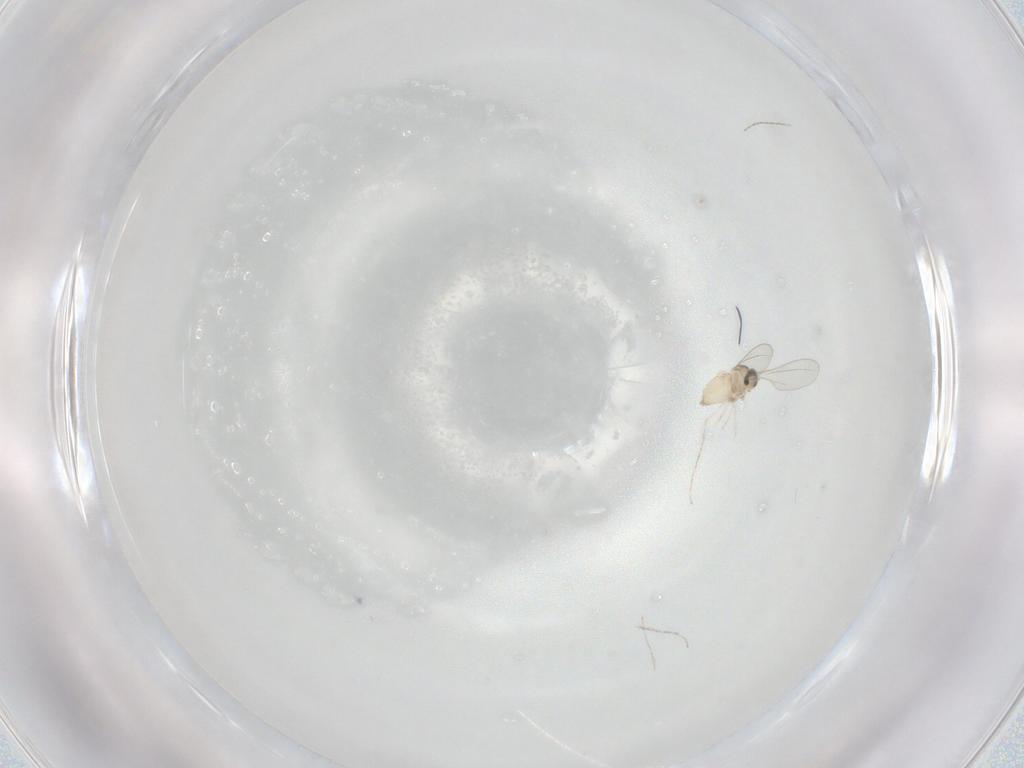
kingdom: Animalia
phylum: Arthropoda
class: Insecta
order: Diptera
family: Cecidomyiidae
